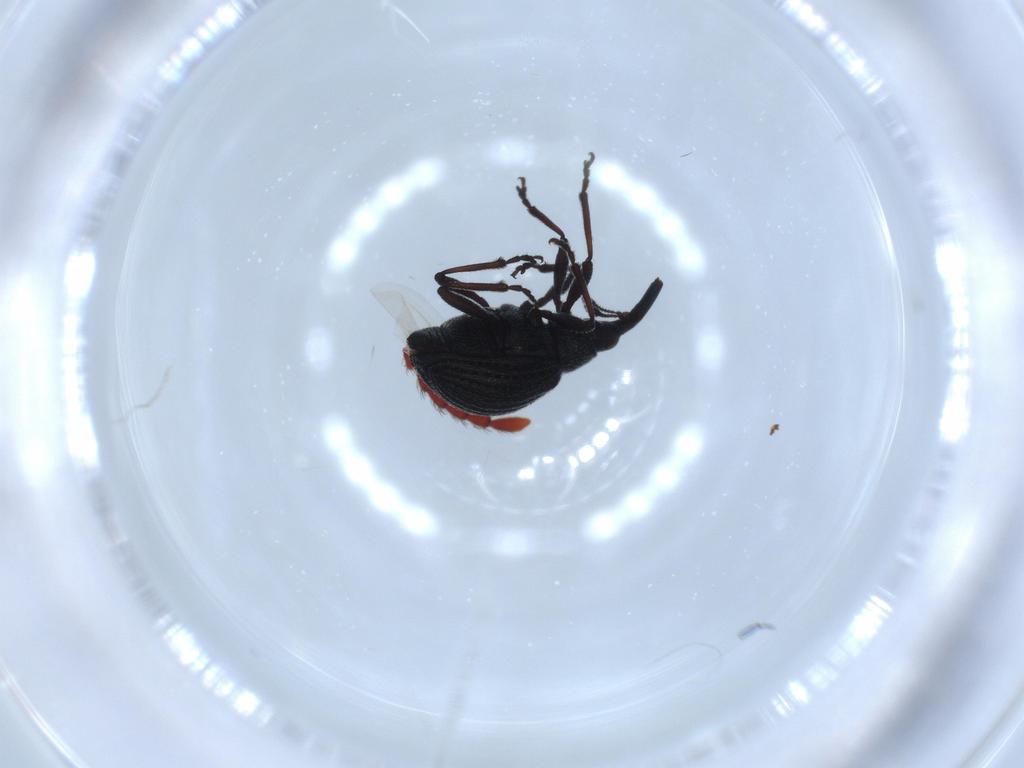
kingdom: Animalia
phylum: Arthropoda
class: Insecta
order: Coleoptera
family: Brentidae
